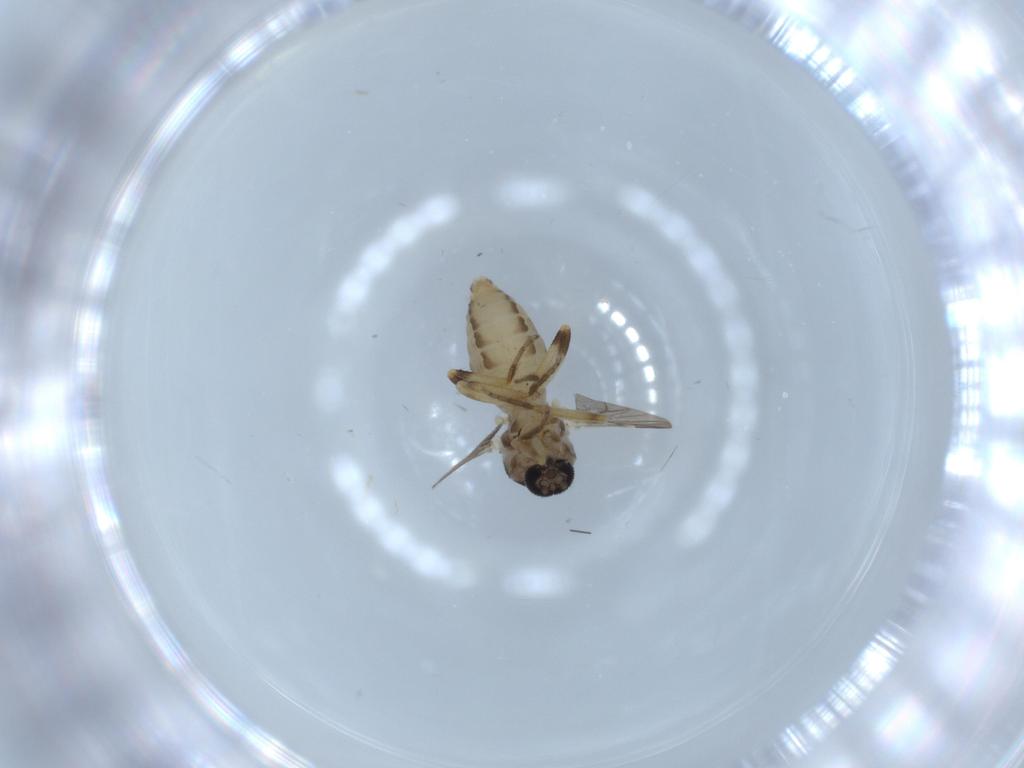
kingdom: Animalia
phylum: Arthropoda
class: Insecta
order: Diptera
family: Ceratopogonidae
